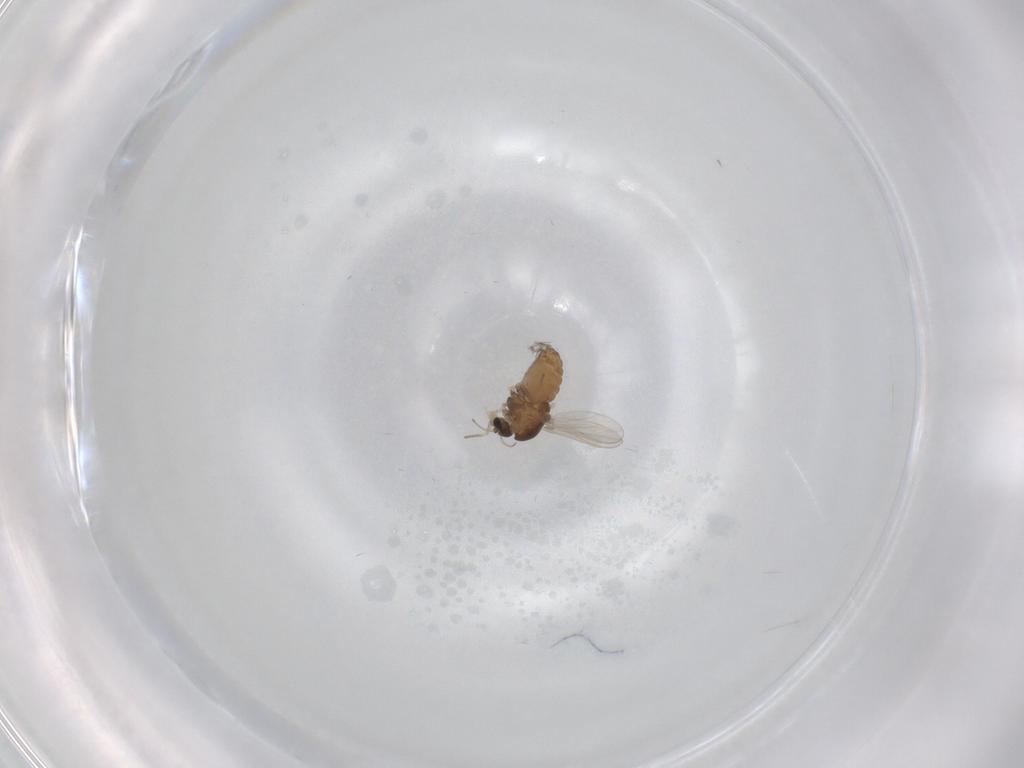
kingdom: Animalia
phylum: Arthropoda
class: Insecta
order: Diptera
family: Chironomidae
